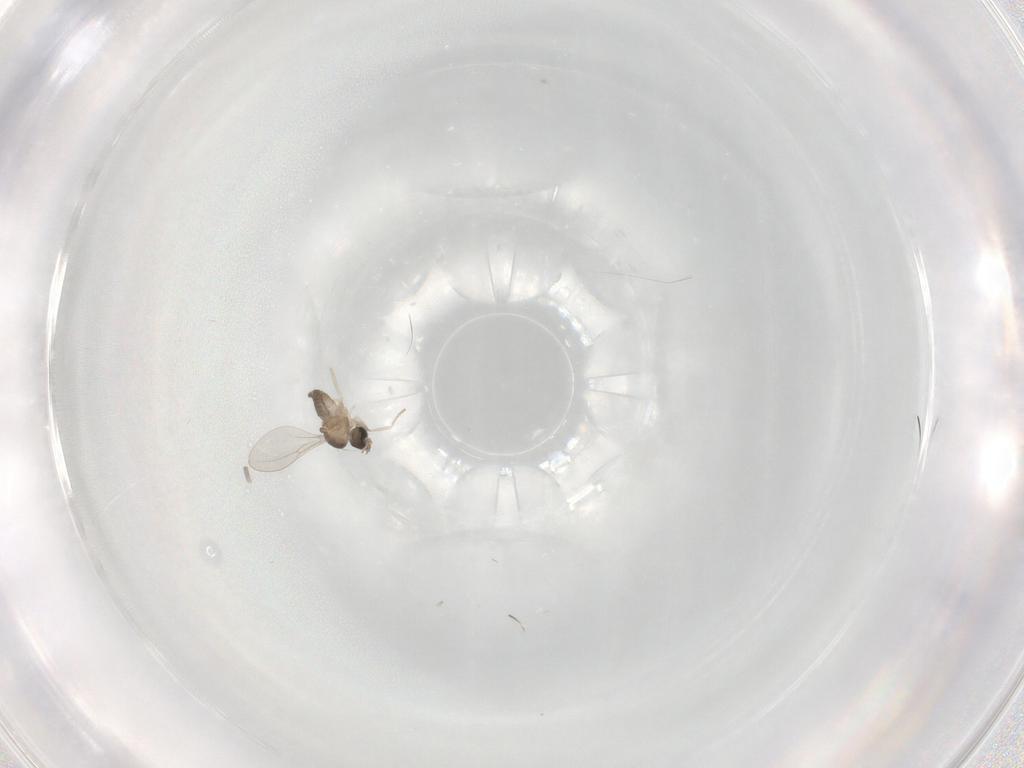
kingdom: Animalia
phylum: Arthropoda
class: Insecta
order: Diptera
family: Cecidomyiidae
